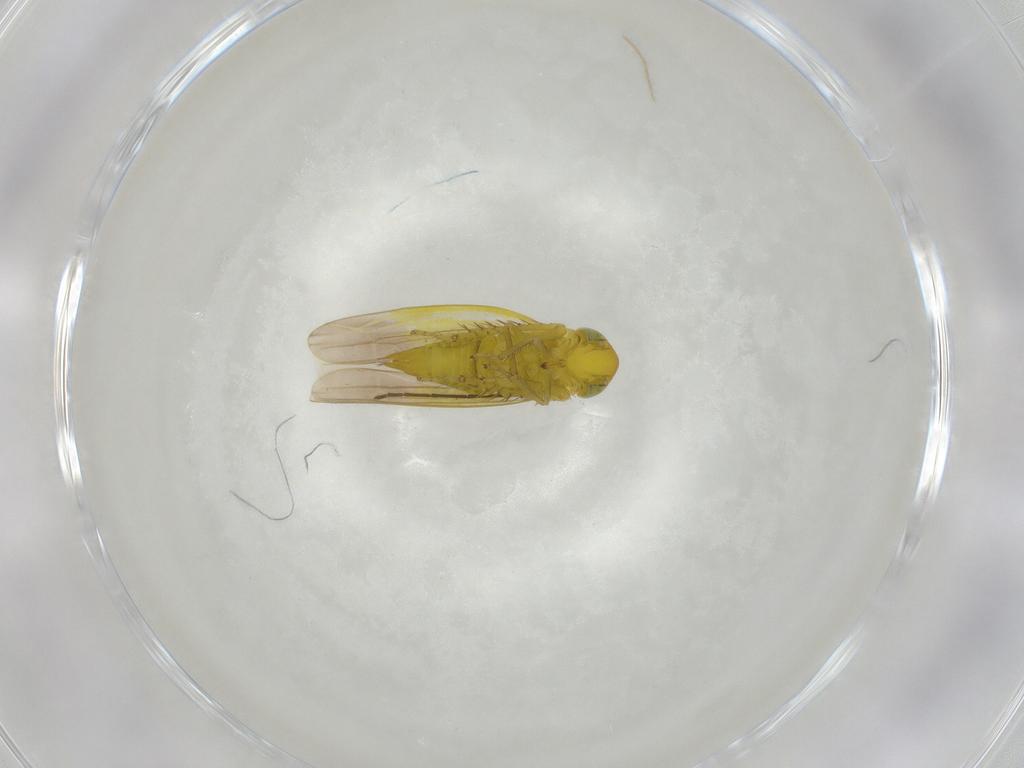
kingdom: Animalia
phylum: Arthropoda
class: Insecta
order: Hemiptera
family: Cicadellidae
